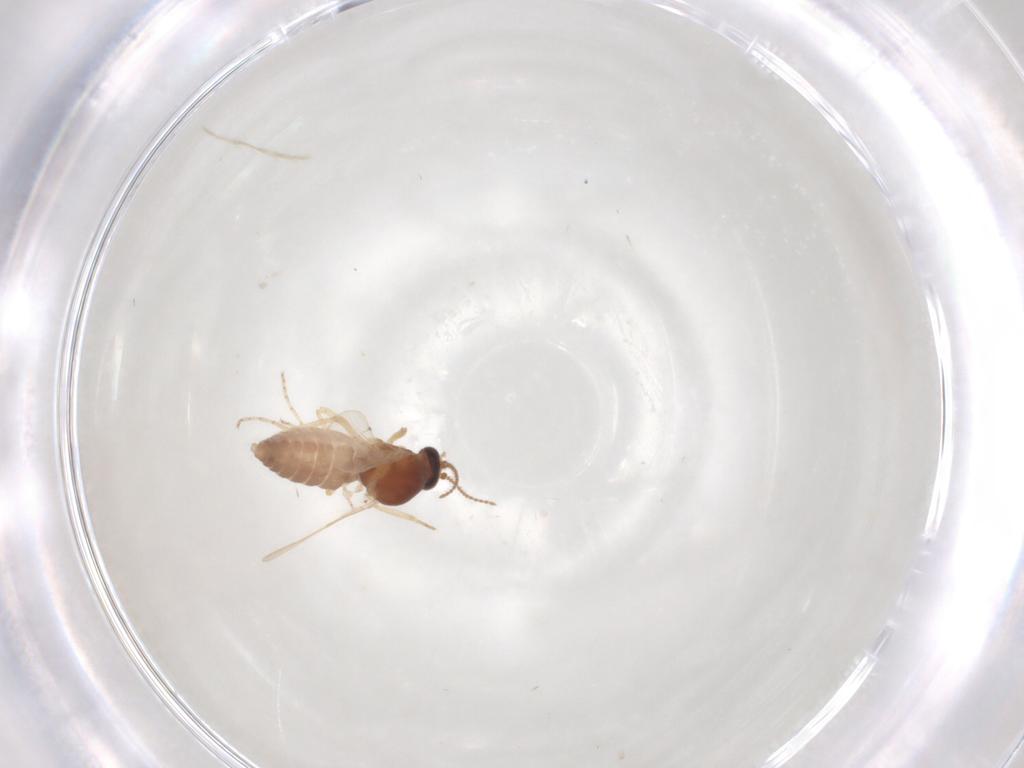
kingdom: Animalia
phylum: Arthropoda
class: Insecta
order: Diptera
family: Ceratopogonidae
